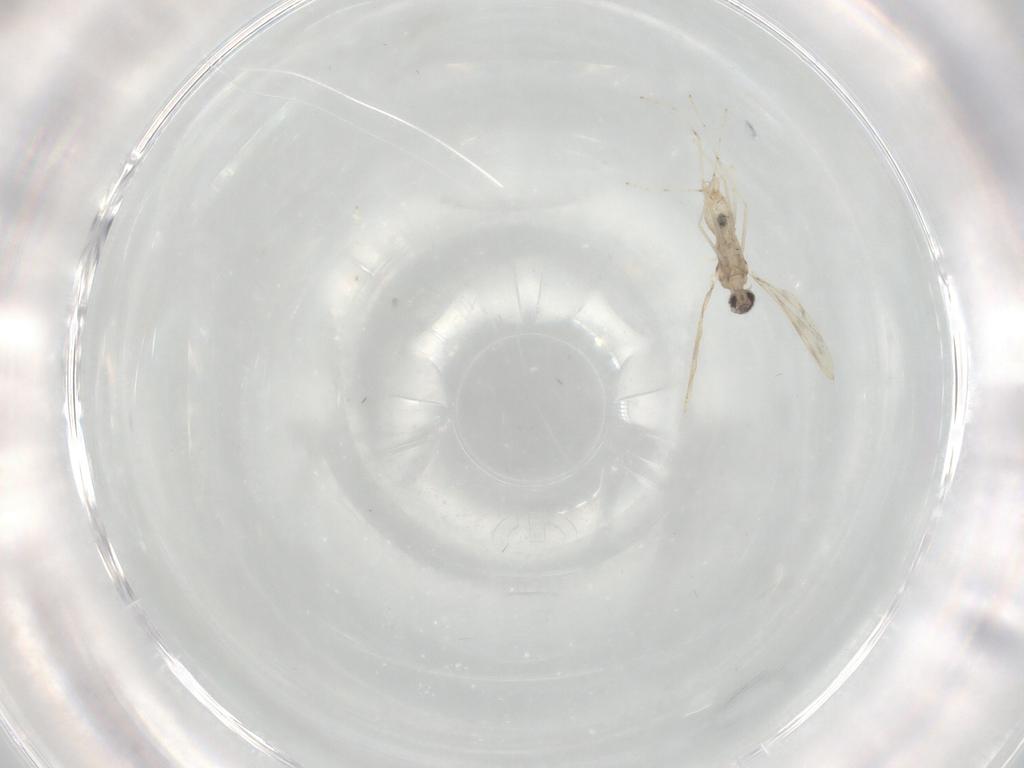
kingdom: Animalia
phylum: Arthropoda
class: Insecta
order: Diptera
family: Cecidomyiidae
